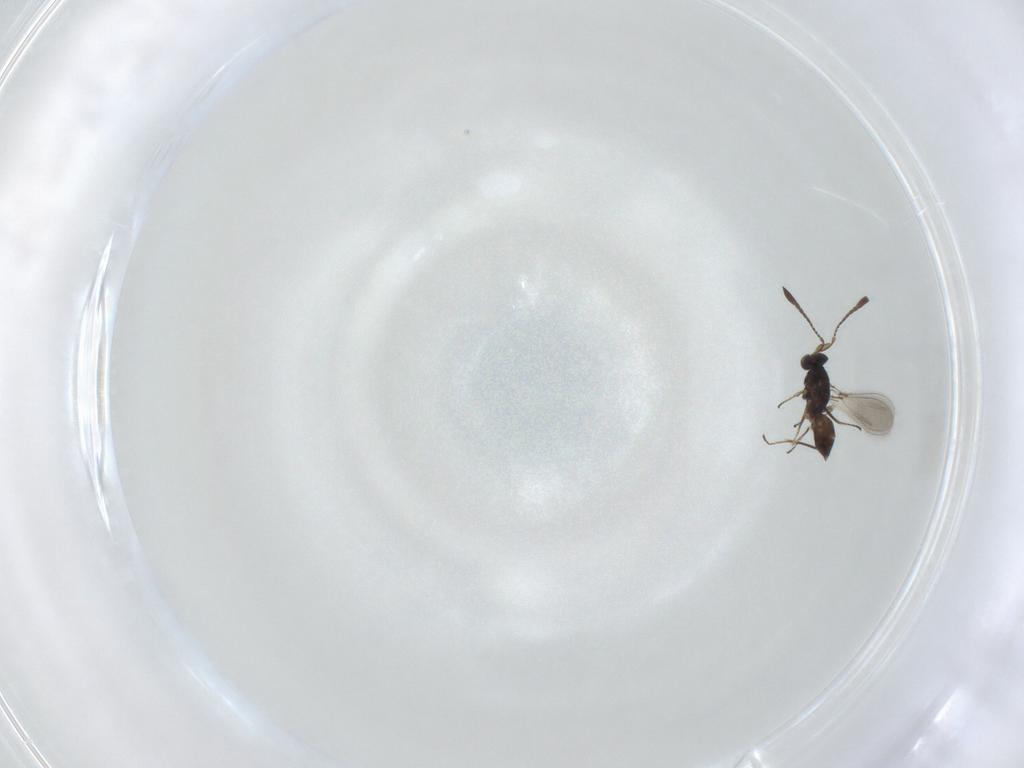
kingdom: Animalia
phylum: Arthropoda
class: Insecta
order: Hymenoptera
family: Mymaridae
